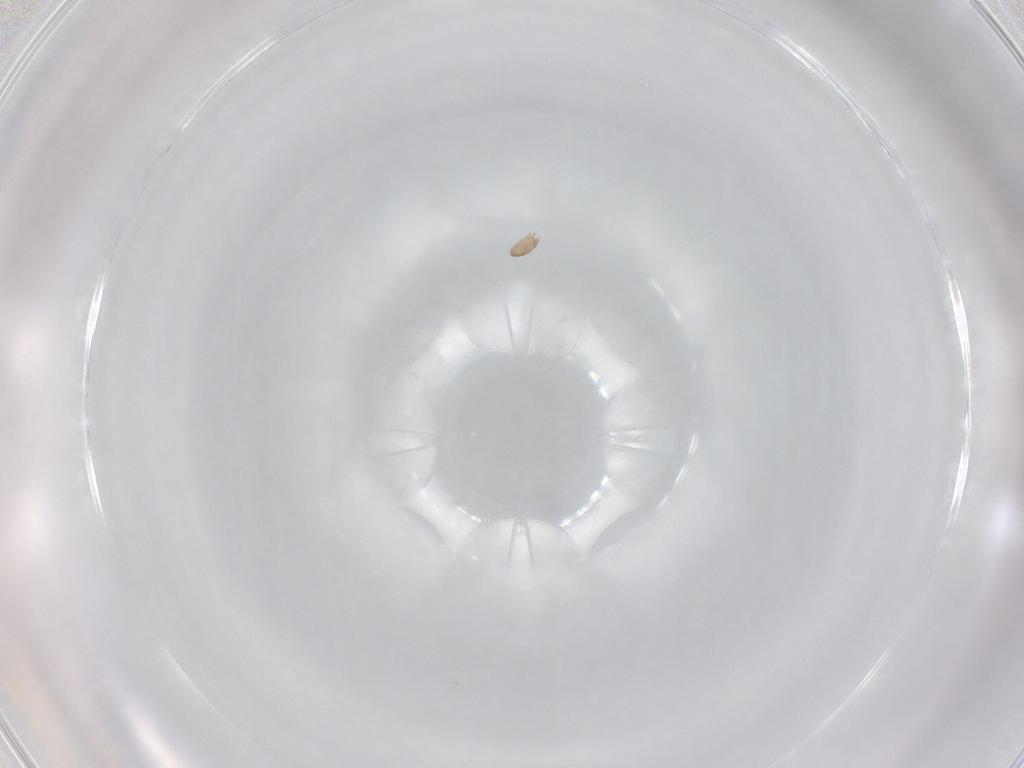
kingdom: Animalia
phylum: Arthropoda
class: Arachnida
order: Trombidiformes
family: Scutacaridae
